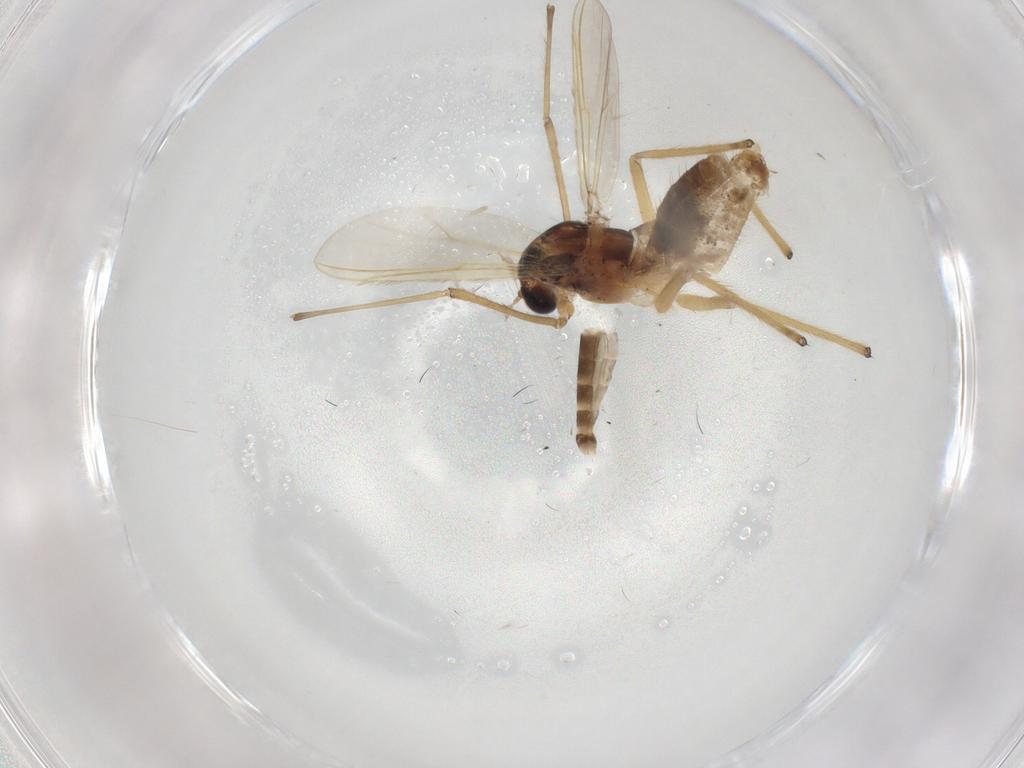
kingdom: Animalia
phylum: Arthropoda
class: Insecta
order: Diptera
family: Chironomidae
